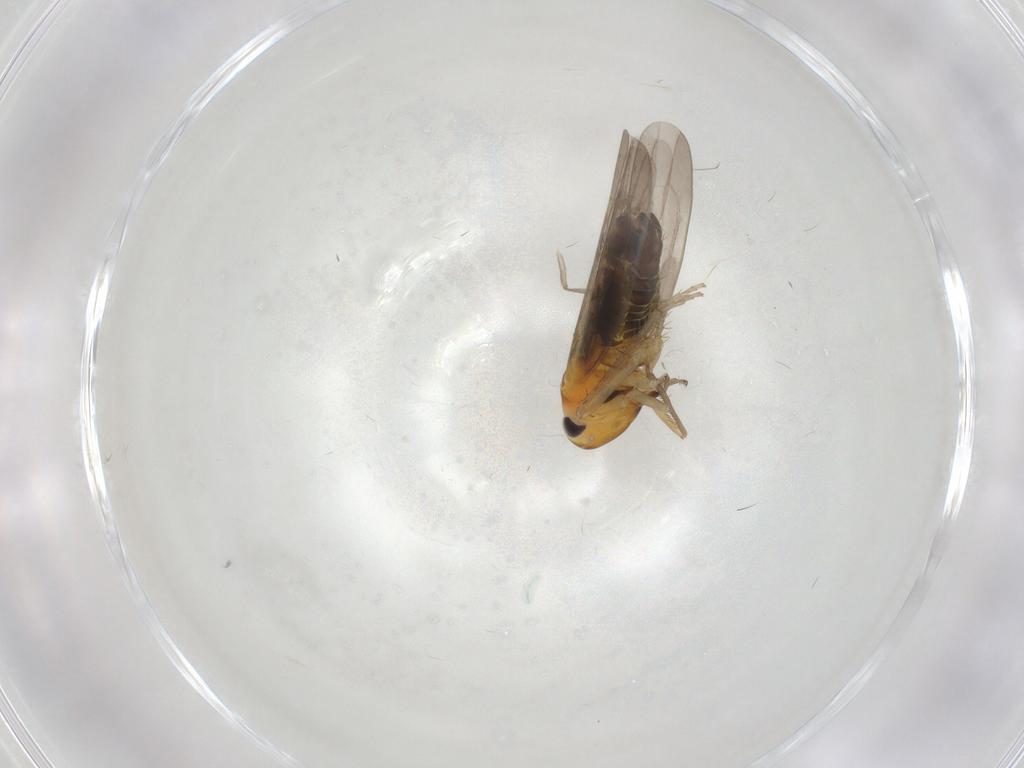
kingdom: Animalia
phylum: Arthropoda
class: Insecta
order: Hemiptera
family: Cicadellidae
